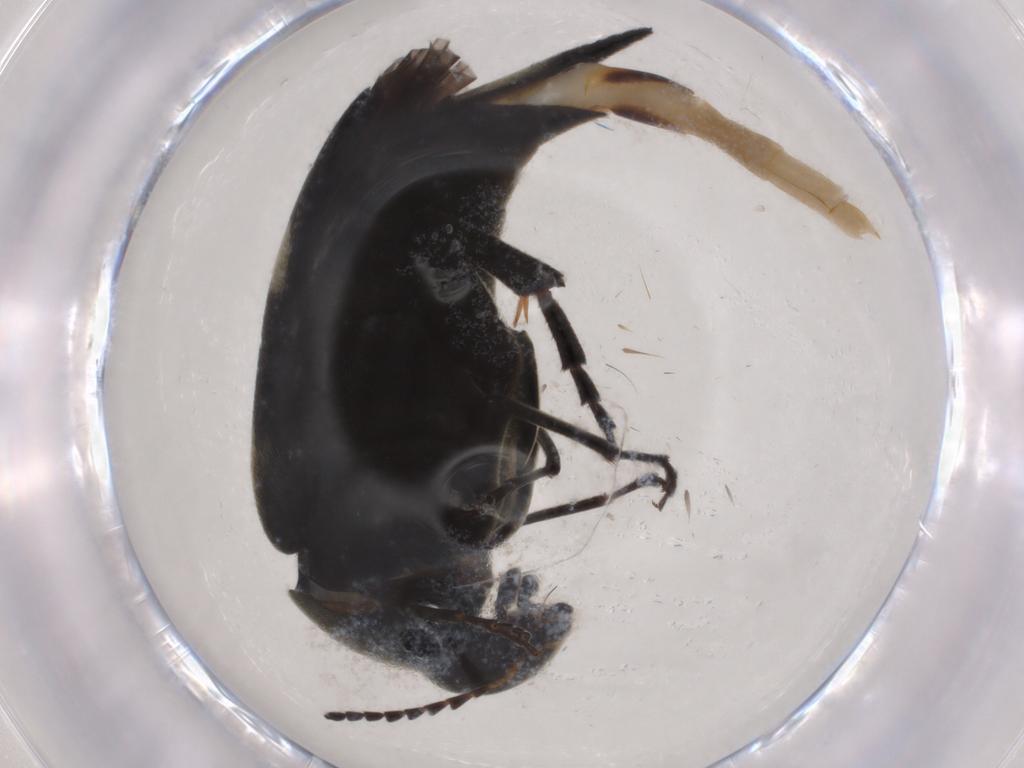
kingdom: Animalia
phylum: Arthropoda
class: Insecta
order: Coleoptera
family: Mordellidae
